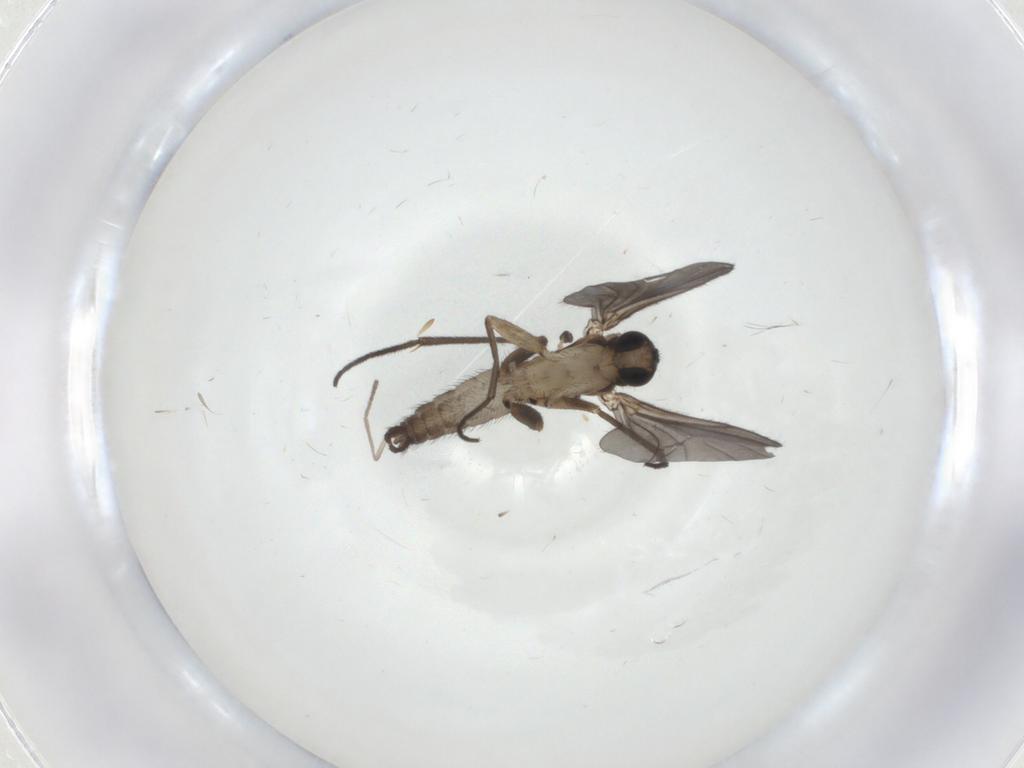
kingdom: Animalia
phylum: Arthropoda
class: Insecta
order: Diptera
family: Sciaridae
